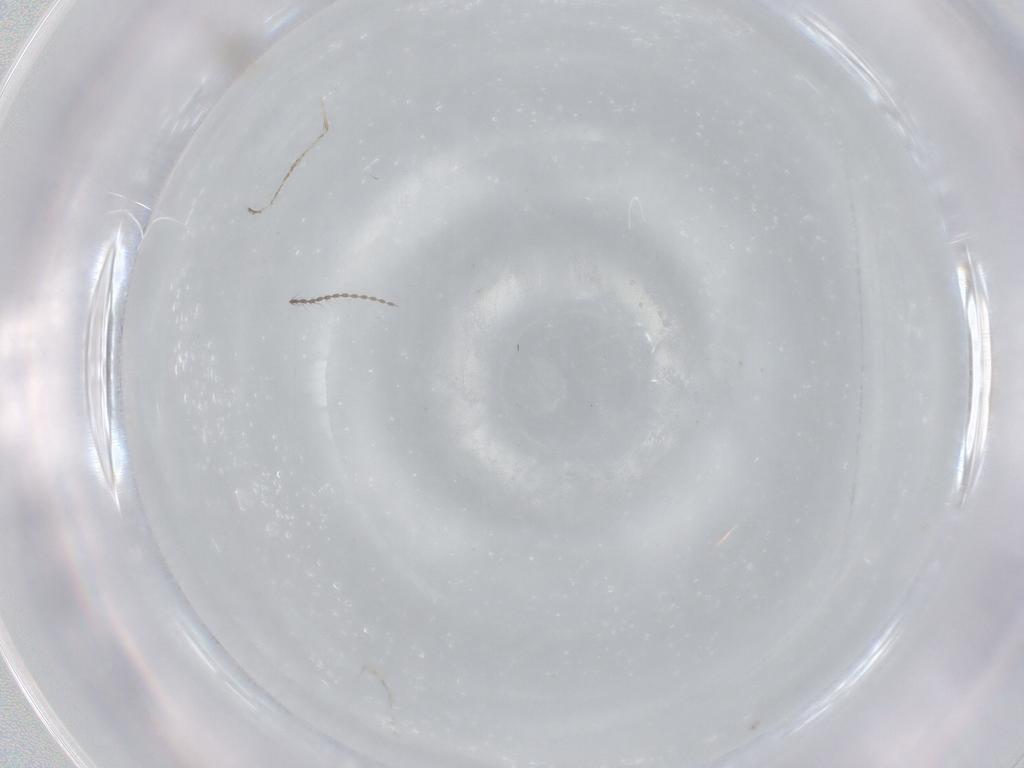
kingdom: Animalia
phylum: Arthropoda
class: Insecta
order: Diptera
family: Cecidomyiidae
